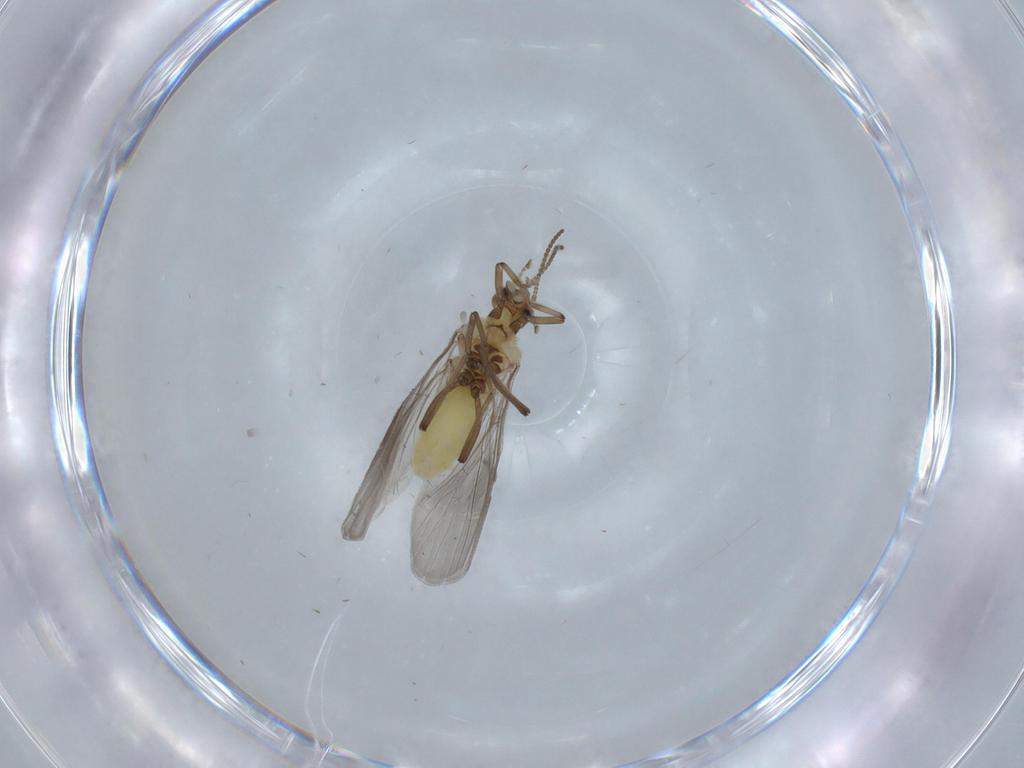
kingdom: Animalia
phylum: Arthropoda
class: Insecta
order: Neuroptera
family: Coniopterygidae
